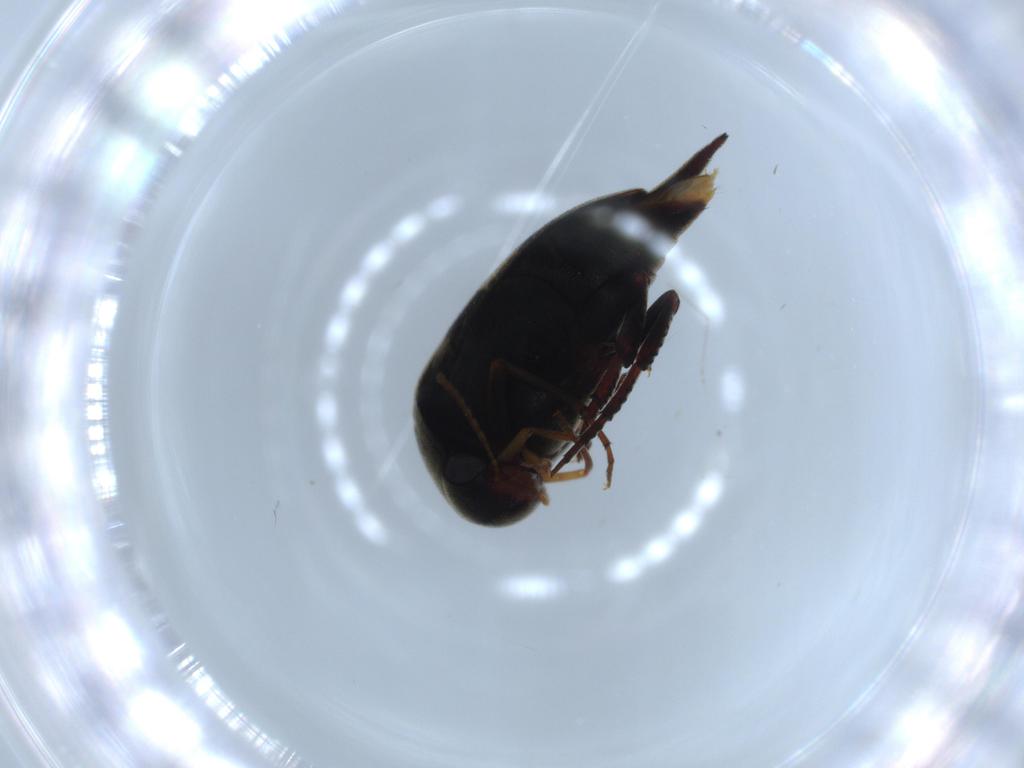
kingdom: Animalia
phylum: Arthropoda
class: Insecta
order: Coleoptera
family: Mordellidae
